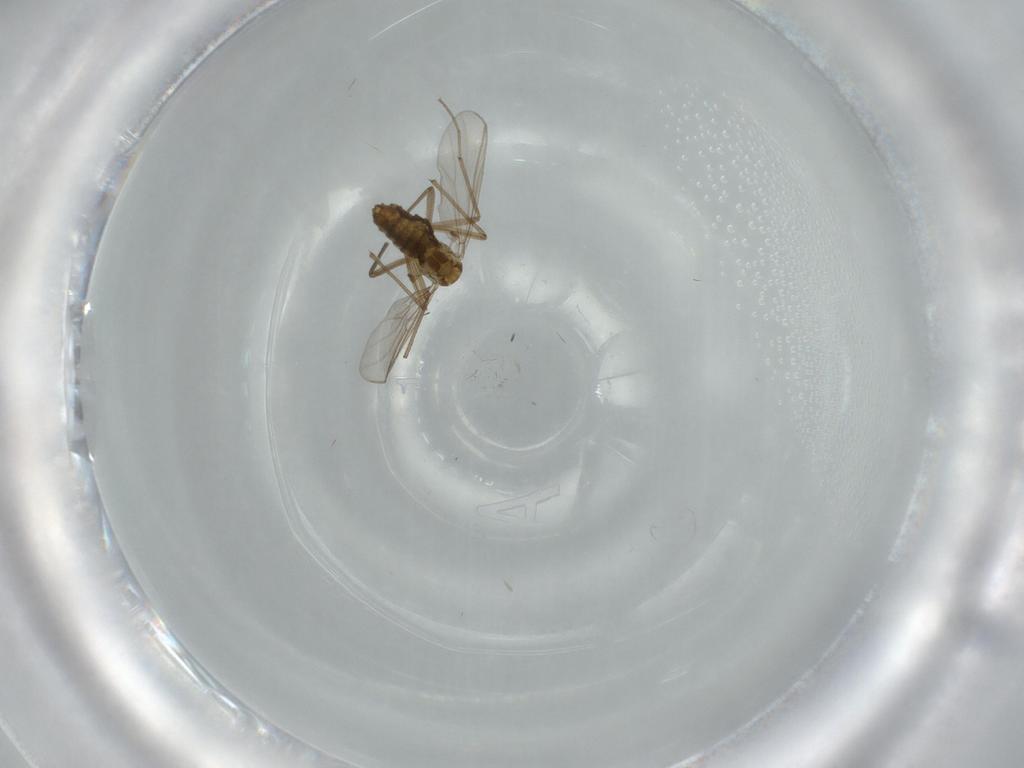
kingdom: Animalia
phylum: Arthropoda
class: Insecta
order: Diptera
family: Chironomidae
